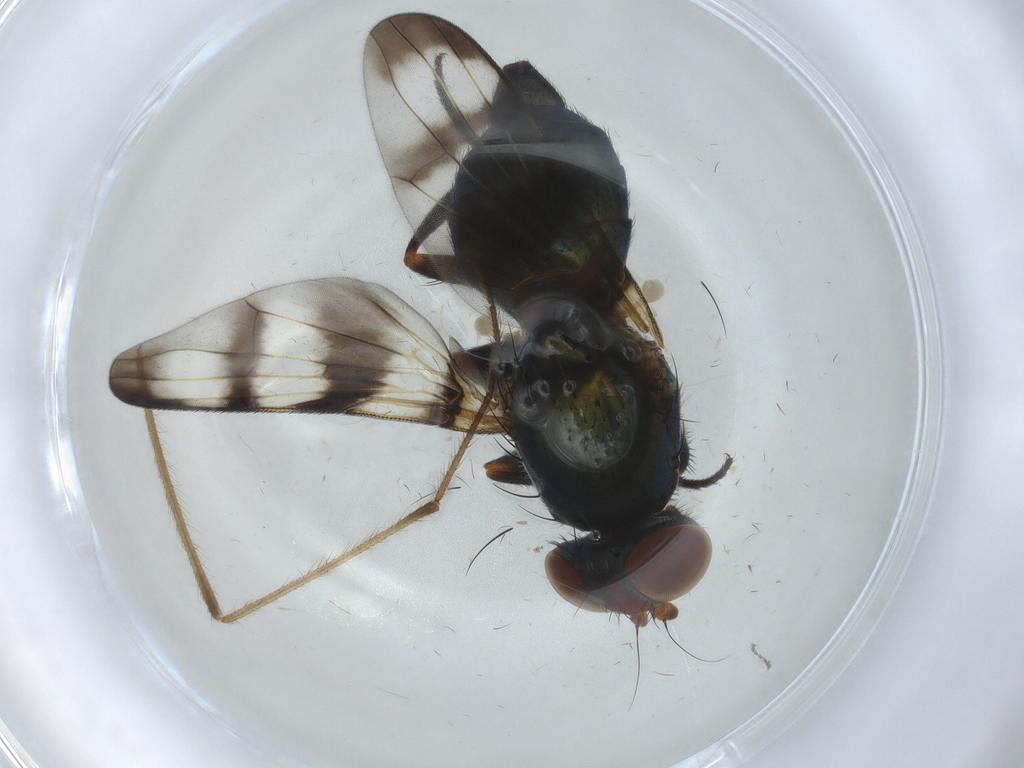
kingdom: Animalia
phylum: Arthropoda
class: Insecta
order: Diptera
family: Ulidiidae
